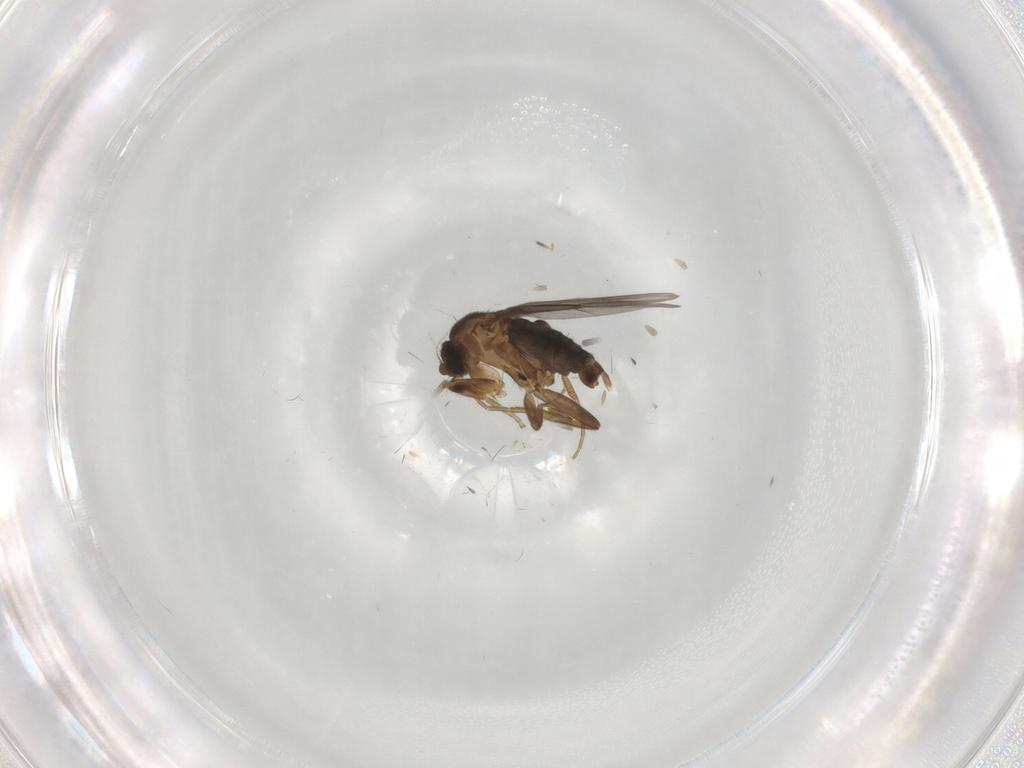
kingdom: Animalia
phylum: Arthropoda
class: Insecta
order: Diptera
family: Phoridae
